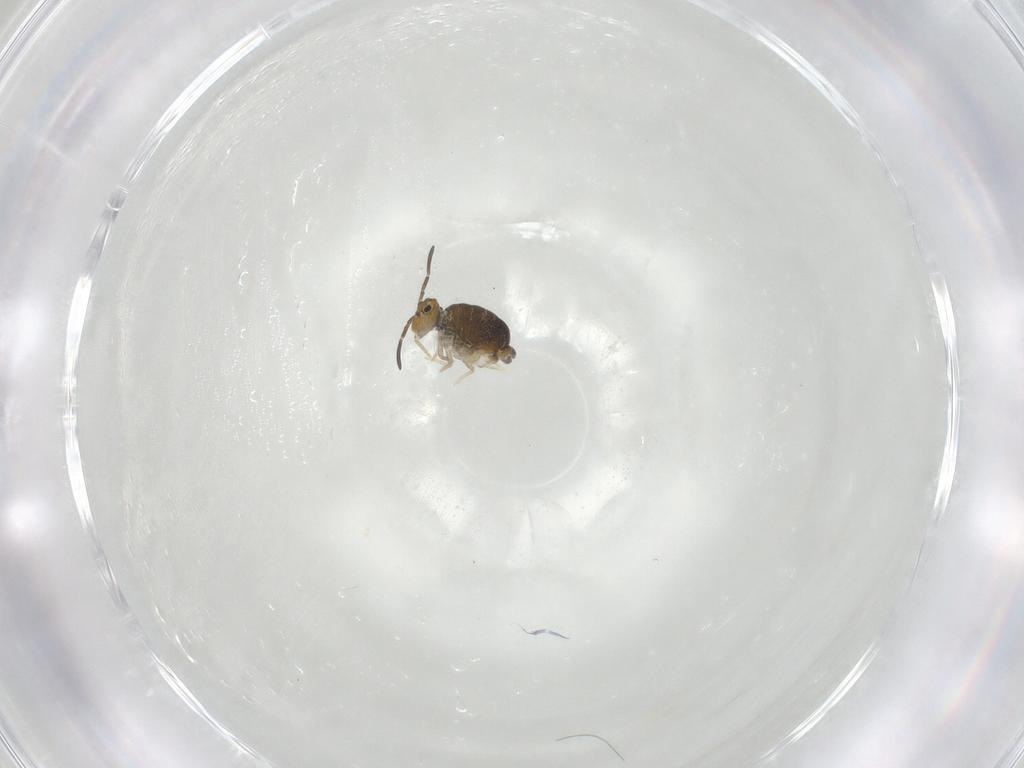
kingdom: Animalia
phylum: Arthropoda
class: Collembola
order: Symphypleona
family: Katiannidae
